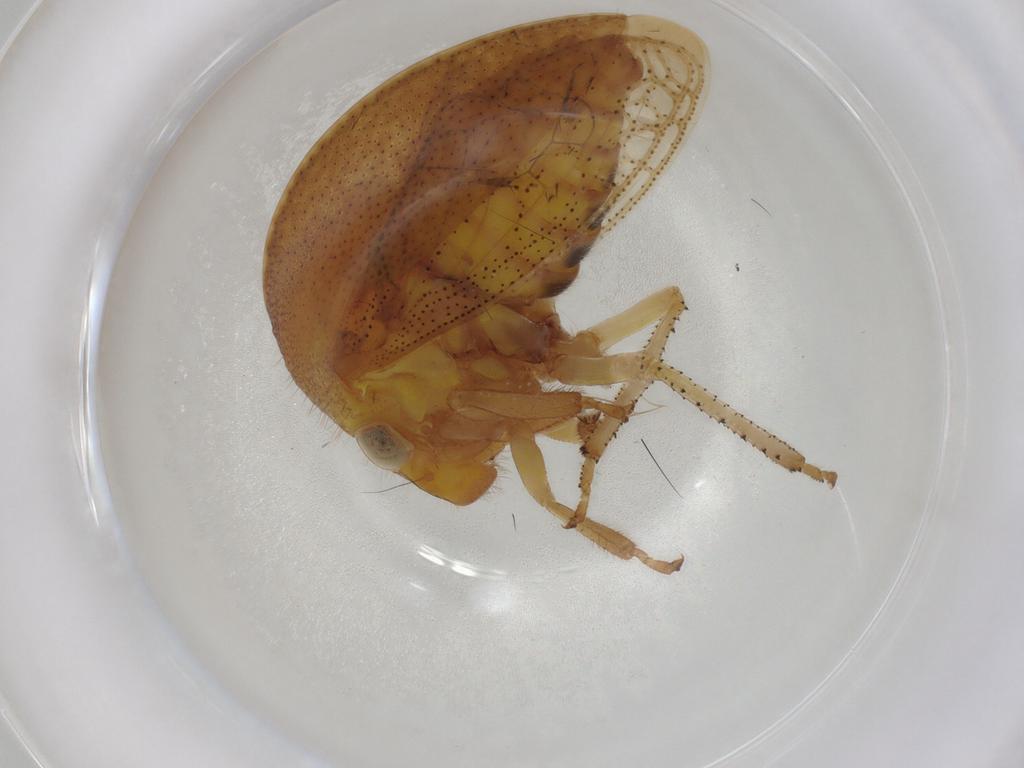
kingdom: Animalia
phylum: Arthropoda
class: Insecta
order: Hemiptera
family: Membracidae
